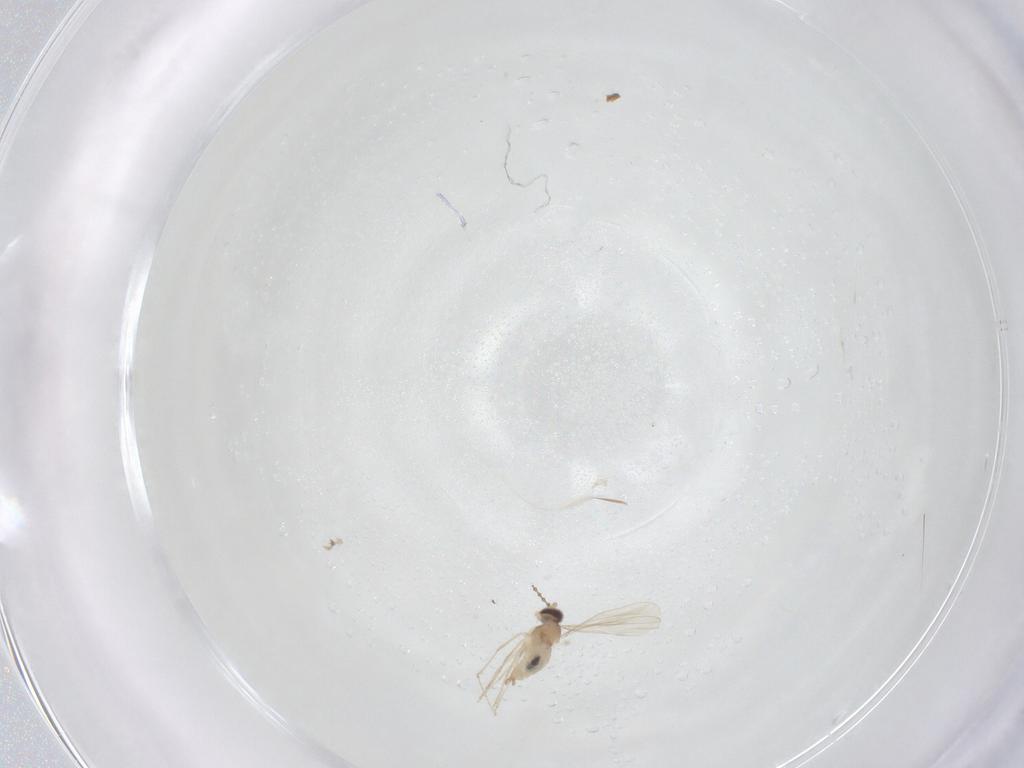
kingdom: Animalia
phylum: Arthropoda
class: Insecta
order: Diptera
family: Cecidomyiidae
